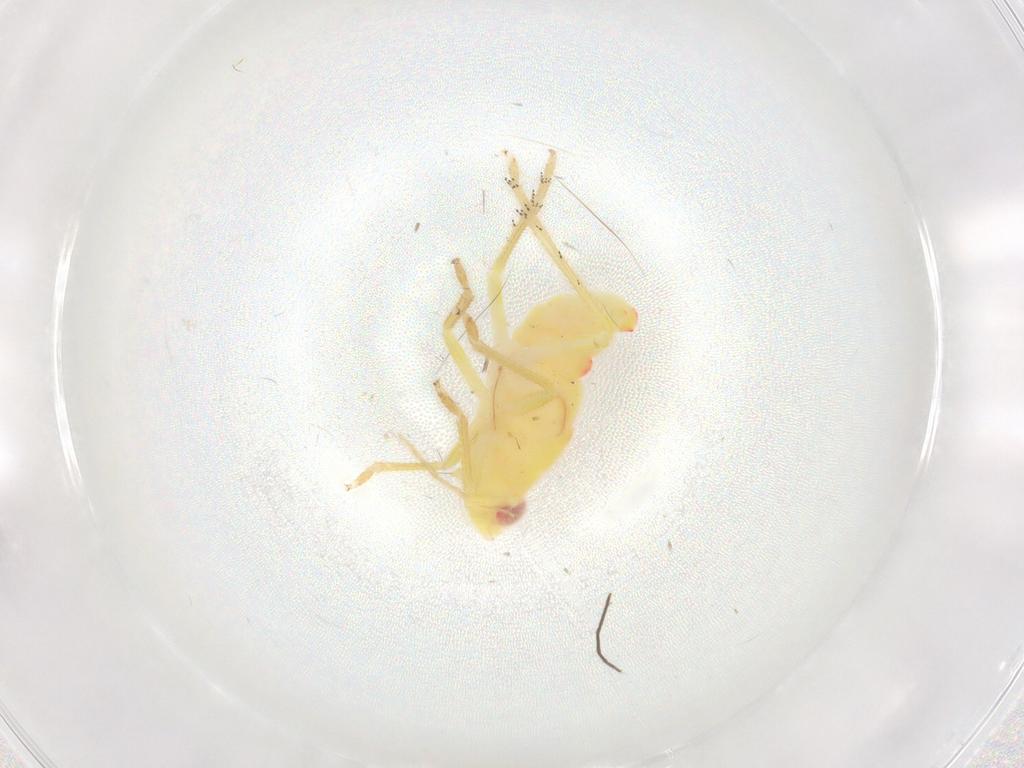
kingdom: Animalia
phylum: Arthropoda
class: Insecta
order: Hemiptera
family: Tropiduchidae
